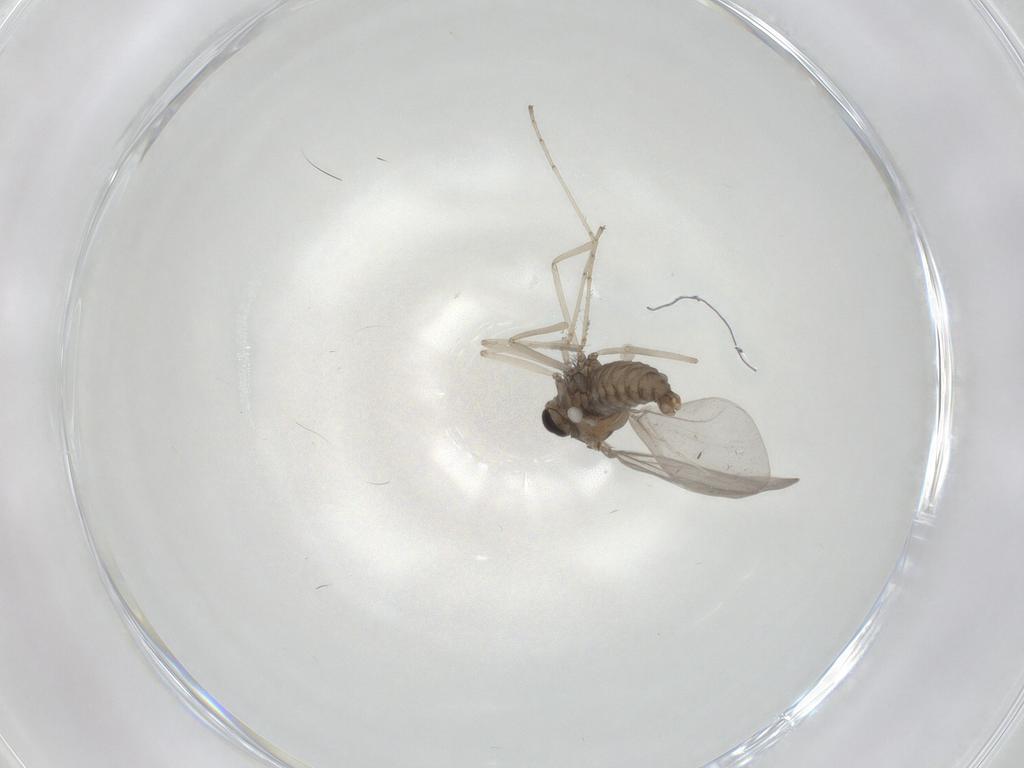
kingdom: Animalia
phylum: Arthropoda
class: Insecta
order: Diptera
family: Cecidomyiidae
